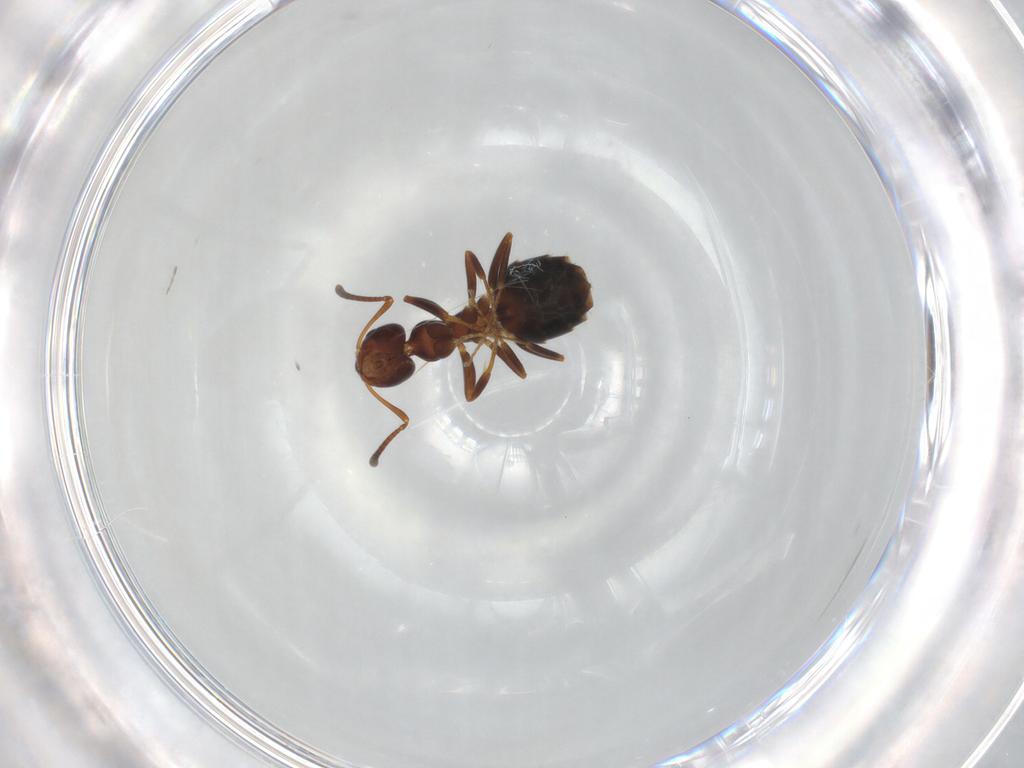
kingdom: Animalia
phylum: Arthropoda
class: Insecta
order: Hymenoptera
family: Formicidae
